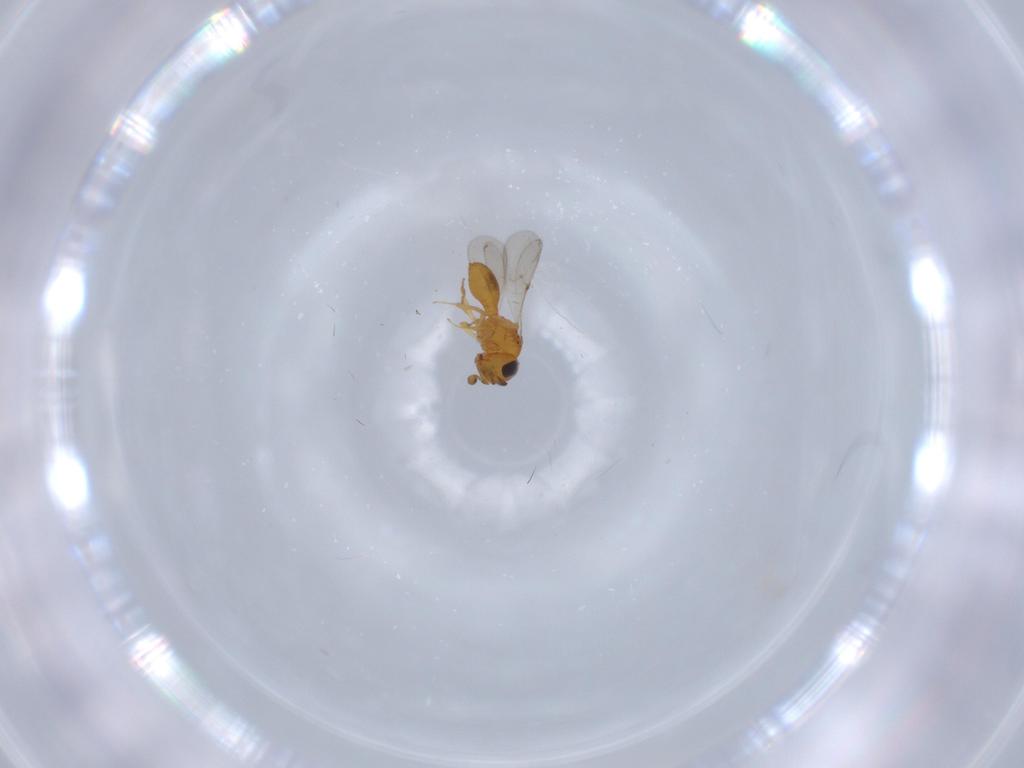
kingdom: Animalia
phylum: Arthropoda
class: Insecta
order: Hymenoptera
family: Scelionidae
